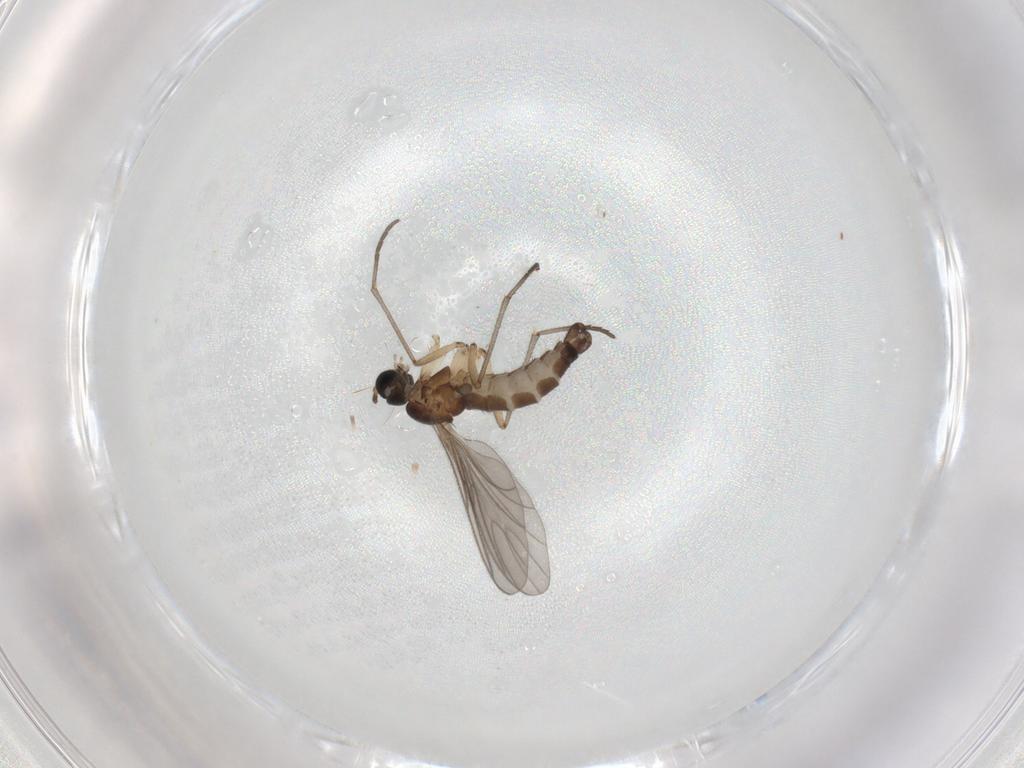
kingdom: Animalia
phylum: Arthropoda
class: Insecta
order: Diptera
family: Sciaridae
